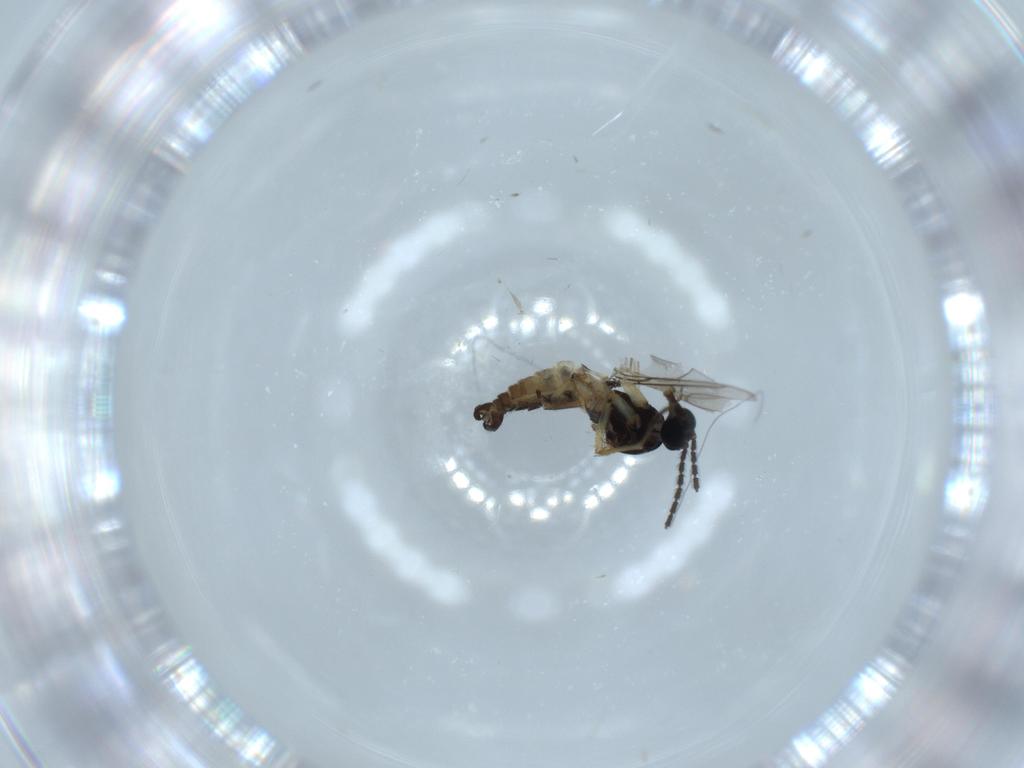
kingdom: Animalia
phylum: Arthropoda
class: Insecta
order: Diptera
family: Sciaridae
